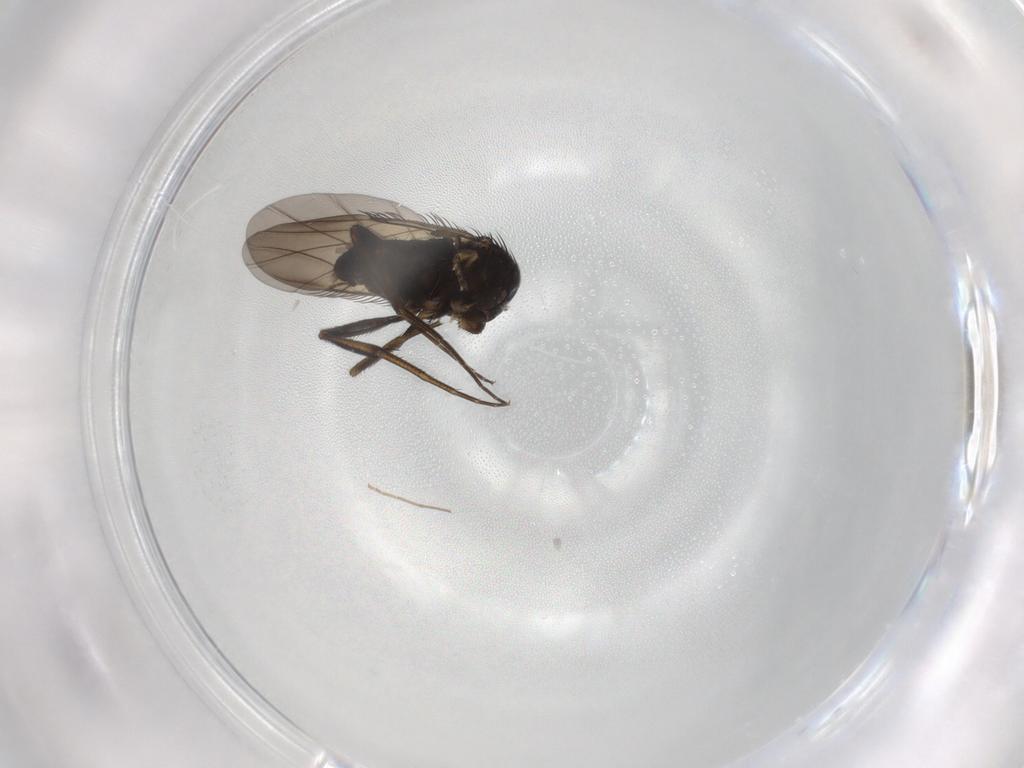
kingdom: Animalia
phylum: Arthropoda
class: Insecta
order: Diptera
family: Phoridae
